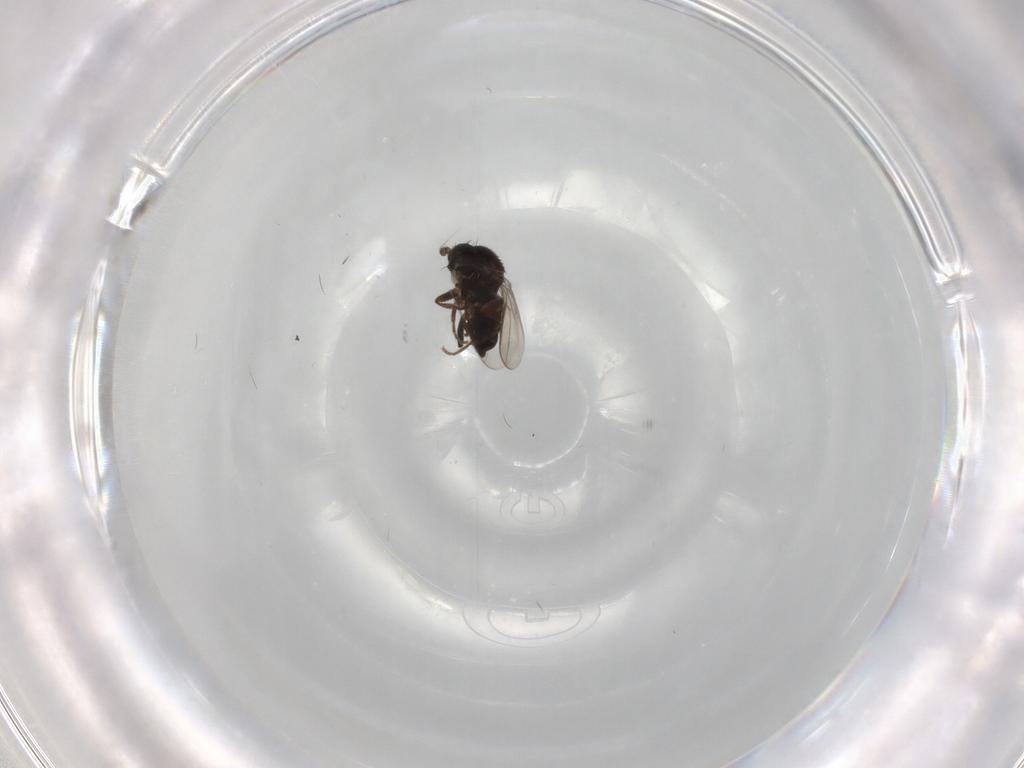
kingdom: Animalia
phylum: Arthropoda
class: Insecta
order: Diptera
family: Sphaeroceridae
